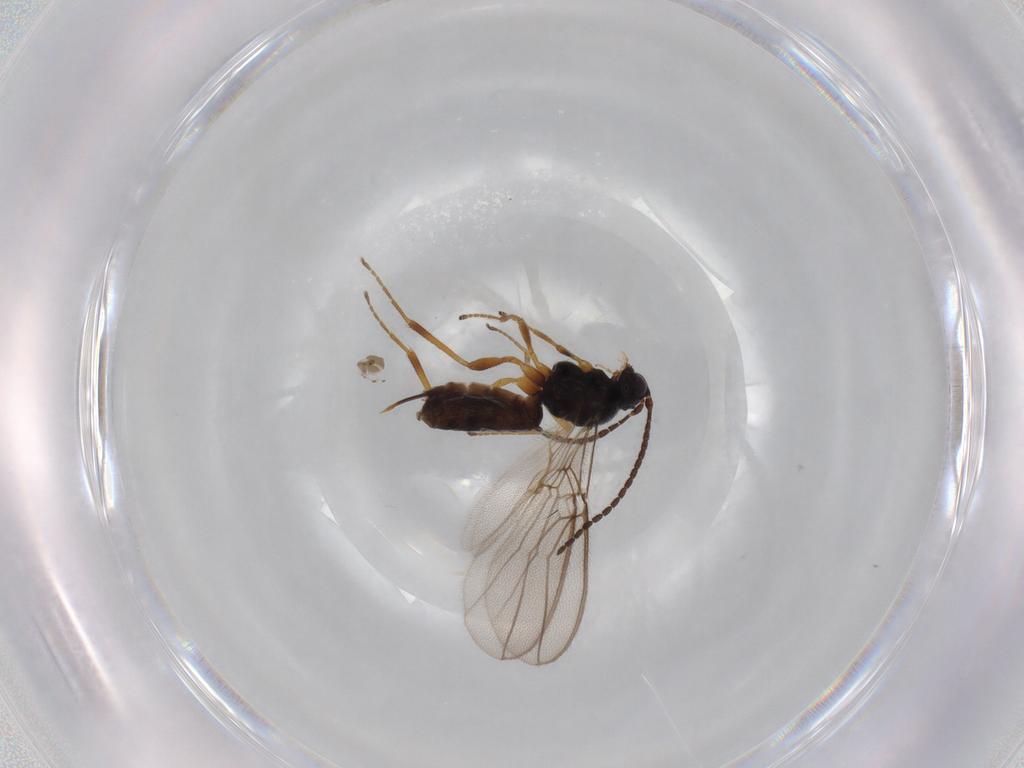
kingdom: Animalia
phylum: Arthropoda
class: Insecta
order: Hymenoptera
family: Braconidae
